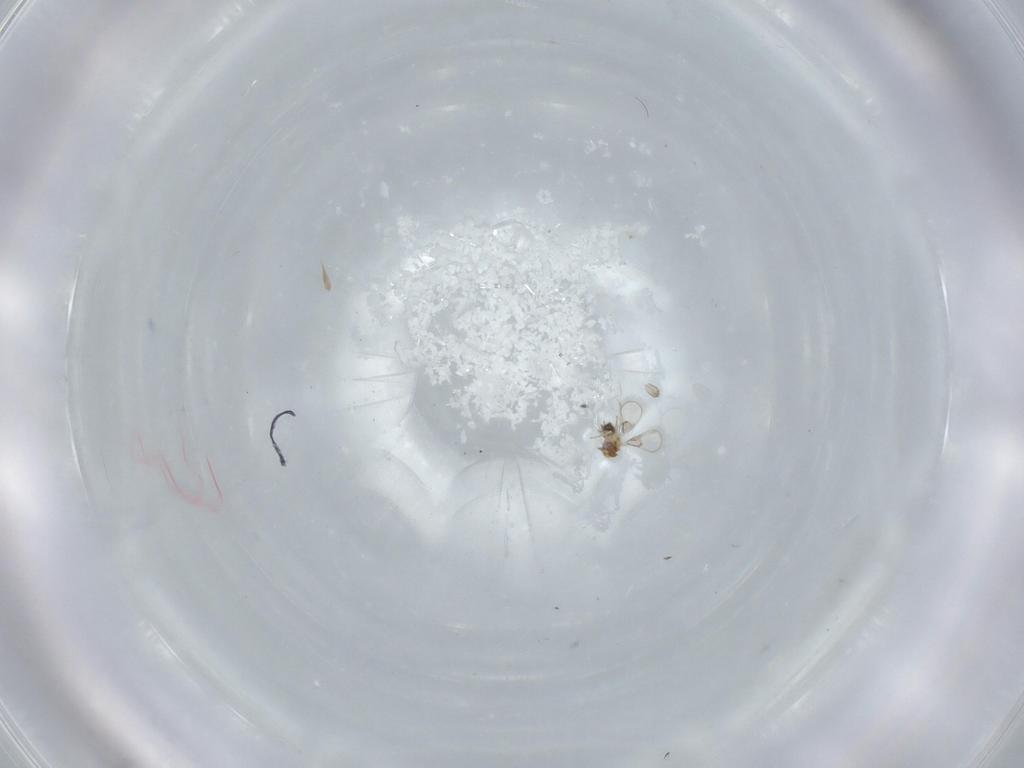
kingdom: Animalia
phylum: Arthropoda
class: Insecta
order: Hymenoptera
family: Trichogrammatidae
